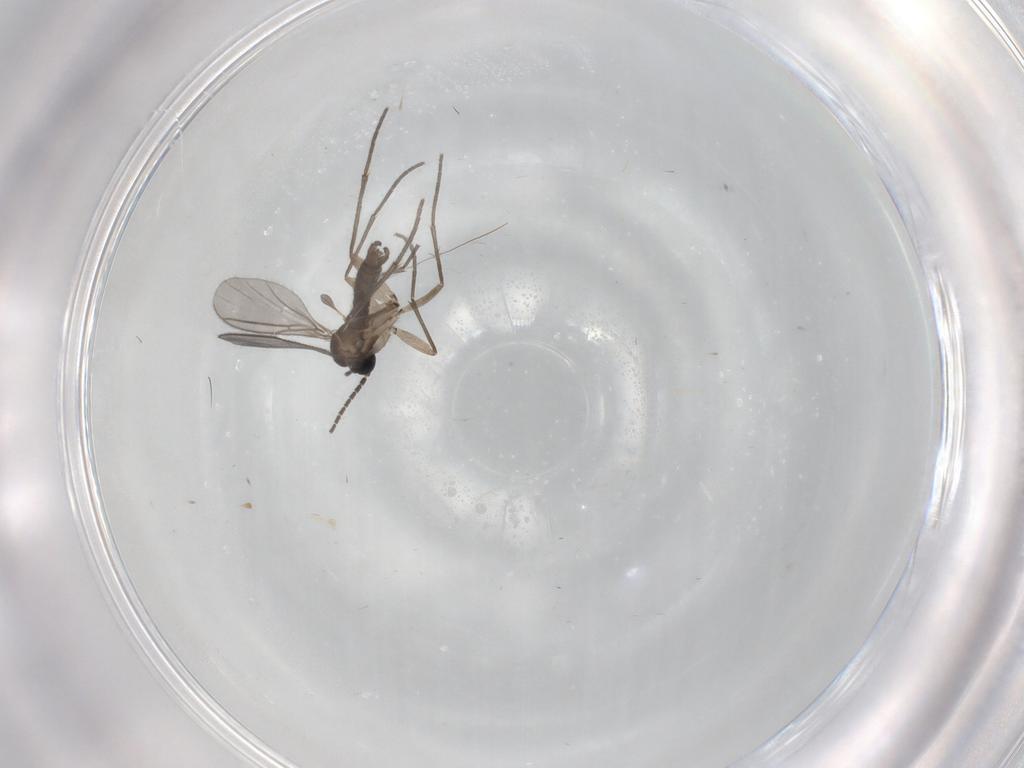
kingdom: Animalia
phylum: Arthropoda
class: Insecta
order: Diptera
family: Sciaridae
